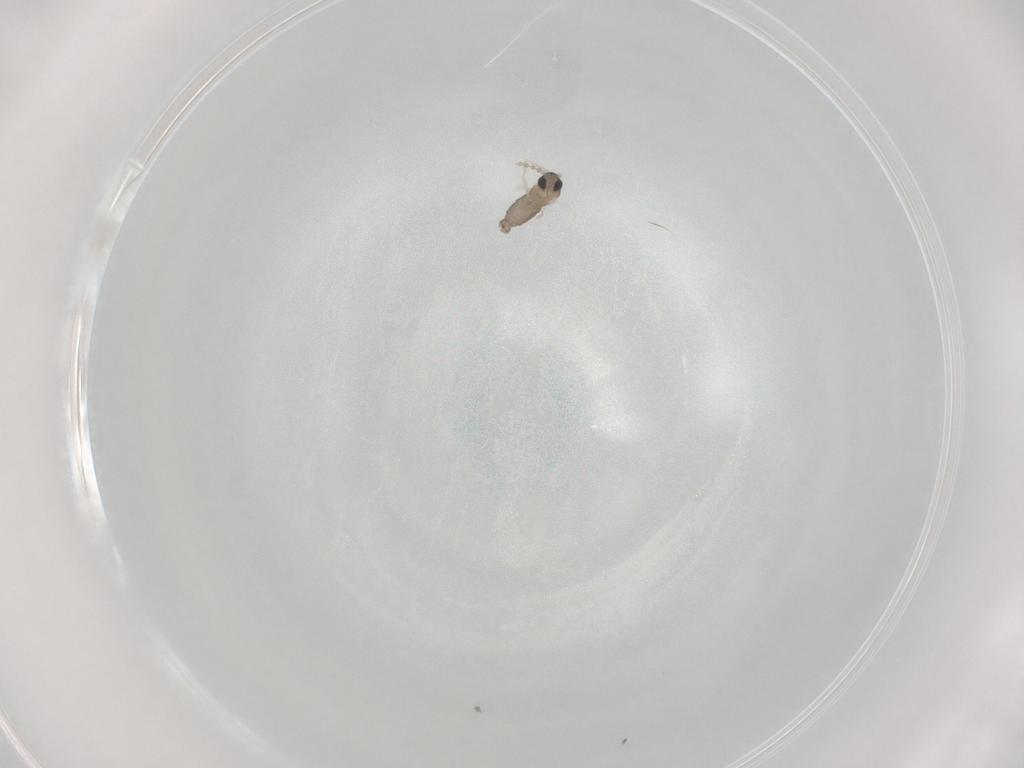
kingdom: Animalia
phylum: Arthropoda
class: Insecta
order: Diptera
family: Cecidomyiidae
